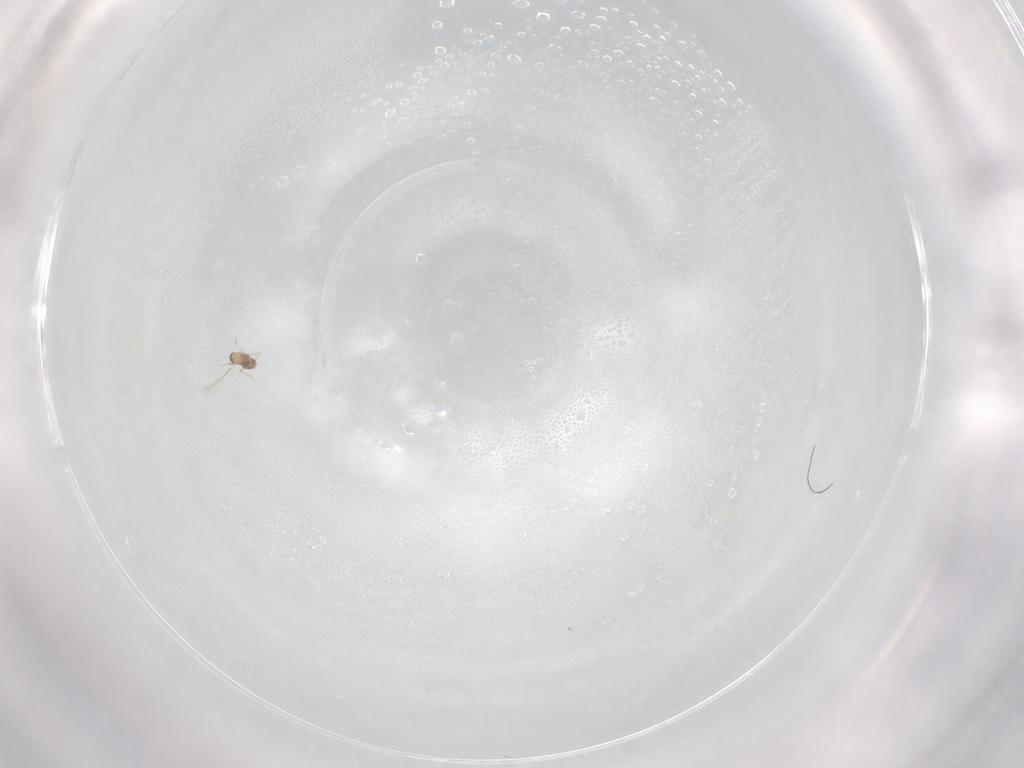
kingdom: Animalia
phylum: Arthropoda
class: Insecta
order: Hymenoptera
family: Mymaridae
